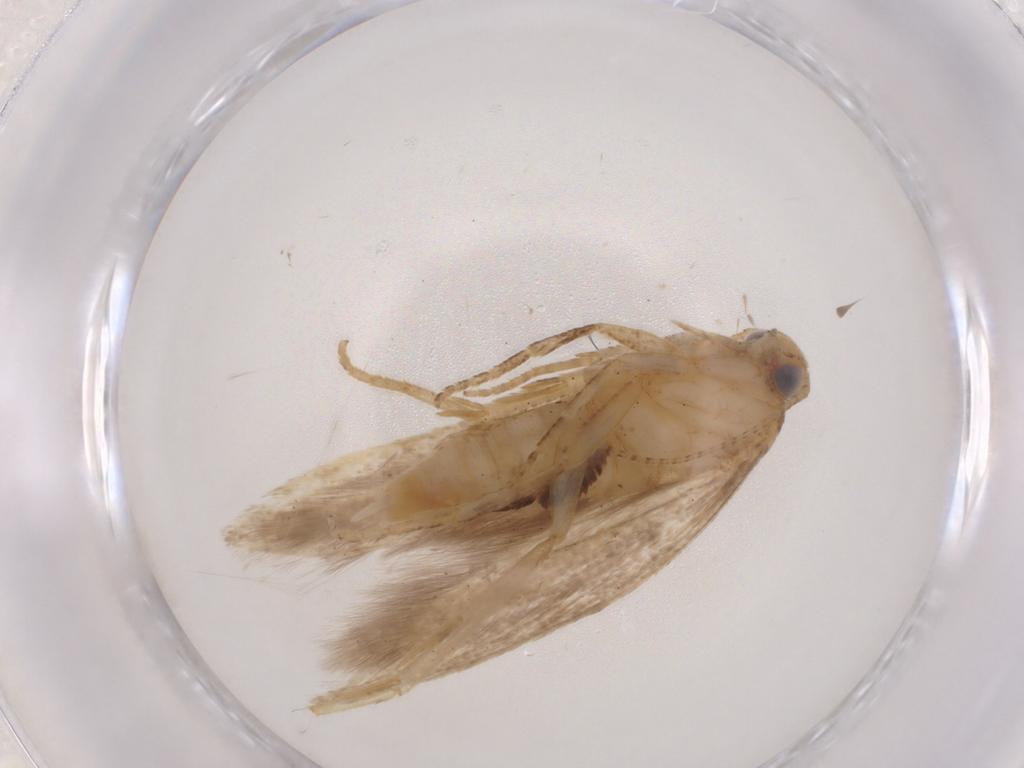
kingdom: Animalia
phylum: Arthropoda
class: Insecta
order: Lepidoptera
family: Gelechiidae
